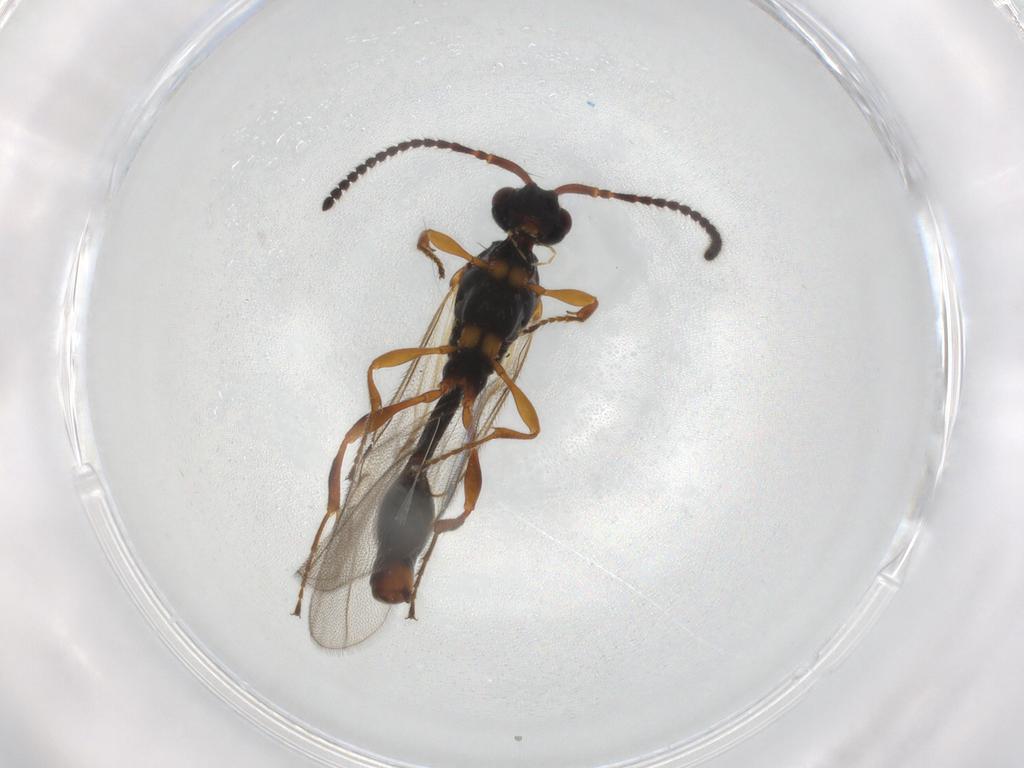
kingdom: Animalia
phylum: Arthropoda
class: Insecta
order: Hymenoptera
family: Diapriidae
